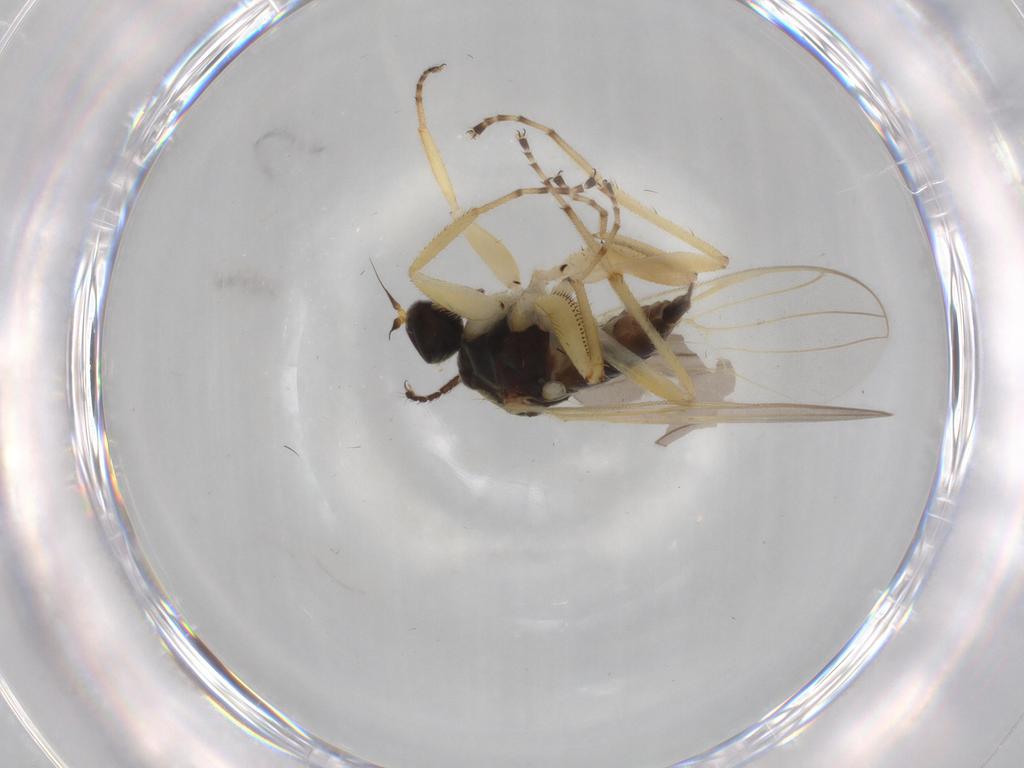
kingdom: Animalia
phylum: Arthropoda
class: Insecta
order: Diptera
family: Hybotidae
